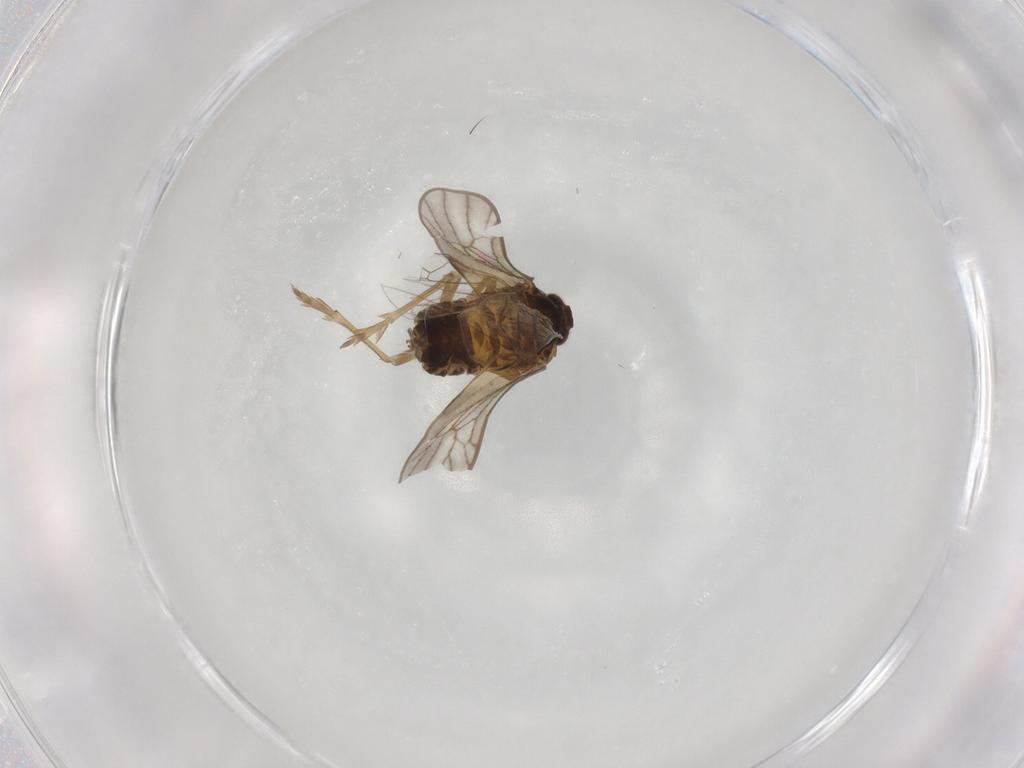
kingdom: Animalia
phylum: Arthropoda
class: Insecta
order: Hemiptera
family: Delphacidae
